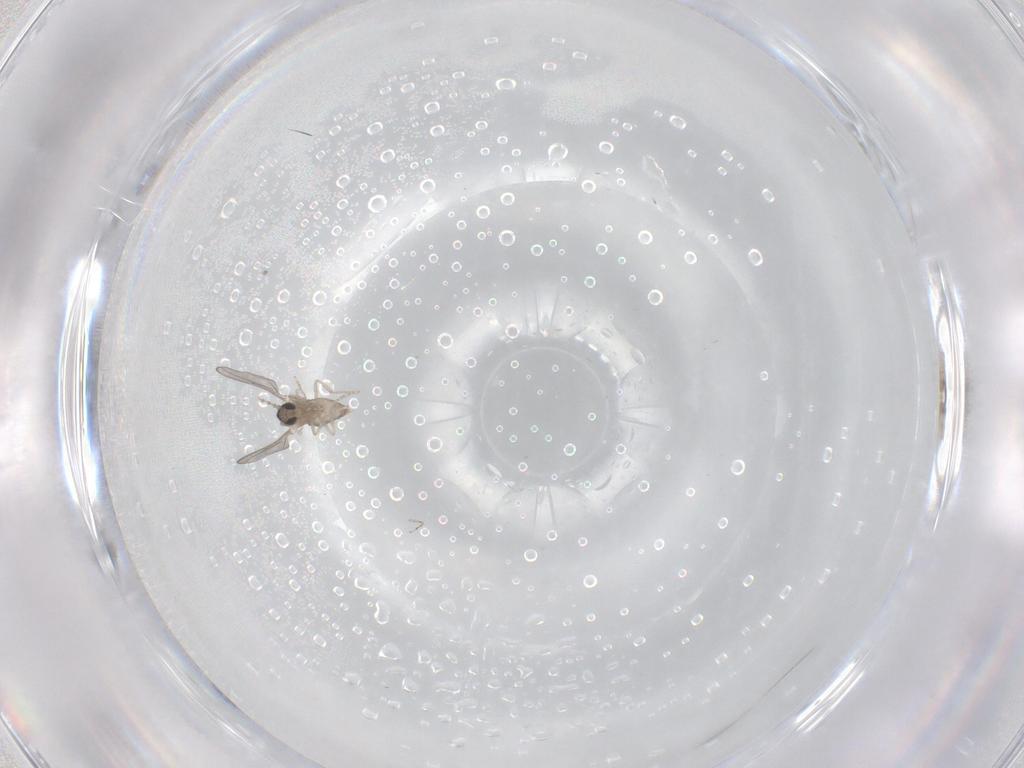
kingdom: Animalia
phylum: Arthropoda
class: Insecta
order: Diptera
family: Cecidomyiidae
